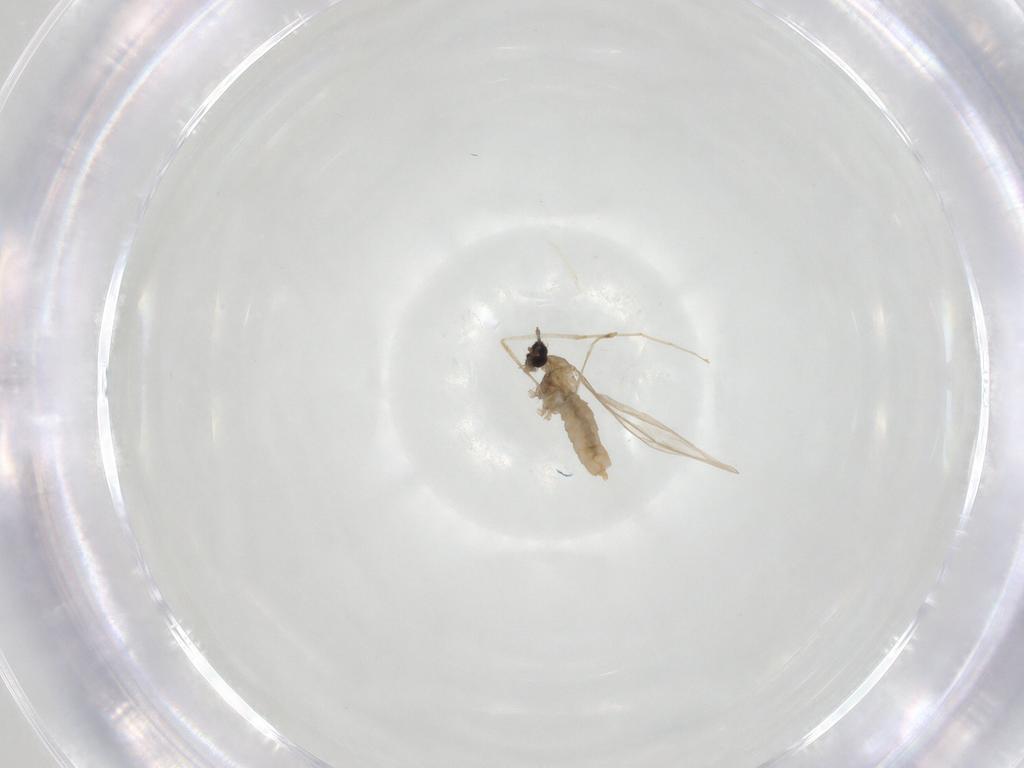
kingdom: Animalia
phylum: Arthropoda
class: Insecta
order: Diptera
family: Cecidomyiidae
